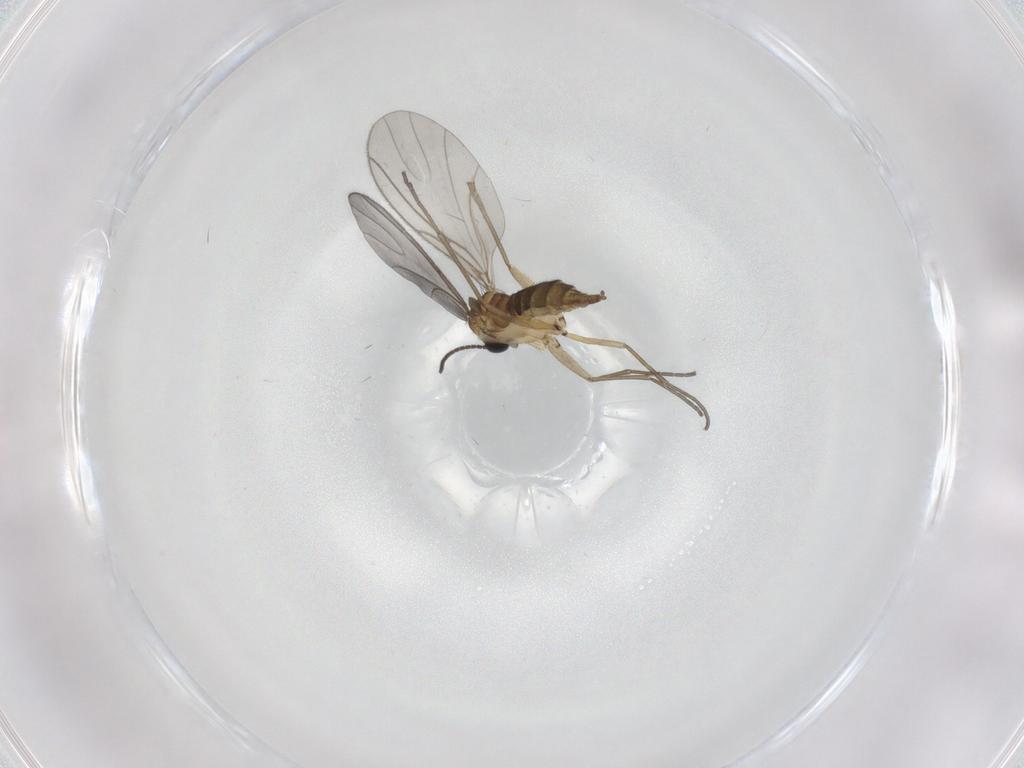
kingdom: Animalia
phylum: Arthropoda
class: Insecta
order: Diptera
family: Sciaridae
